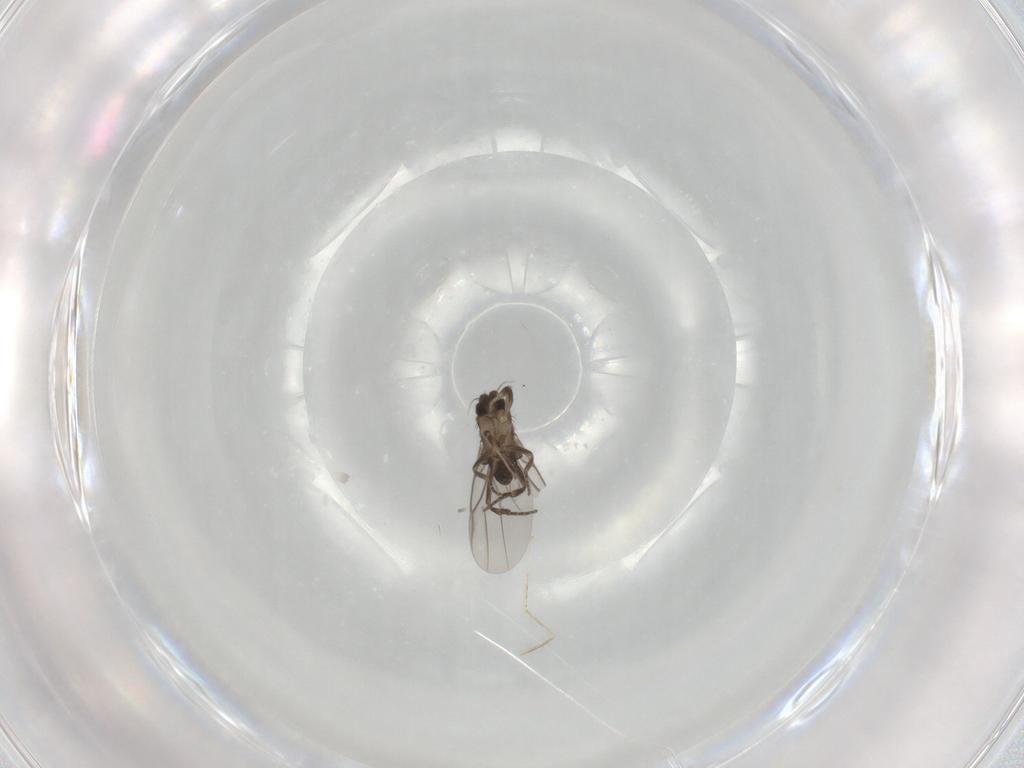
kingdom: Animalia
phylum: Arthropoda
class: Insecta
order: Diptera
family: Phoridae
